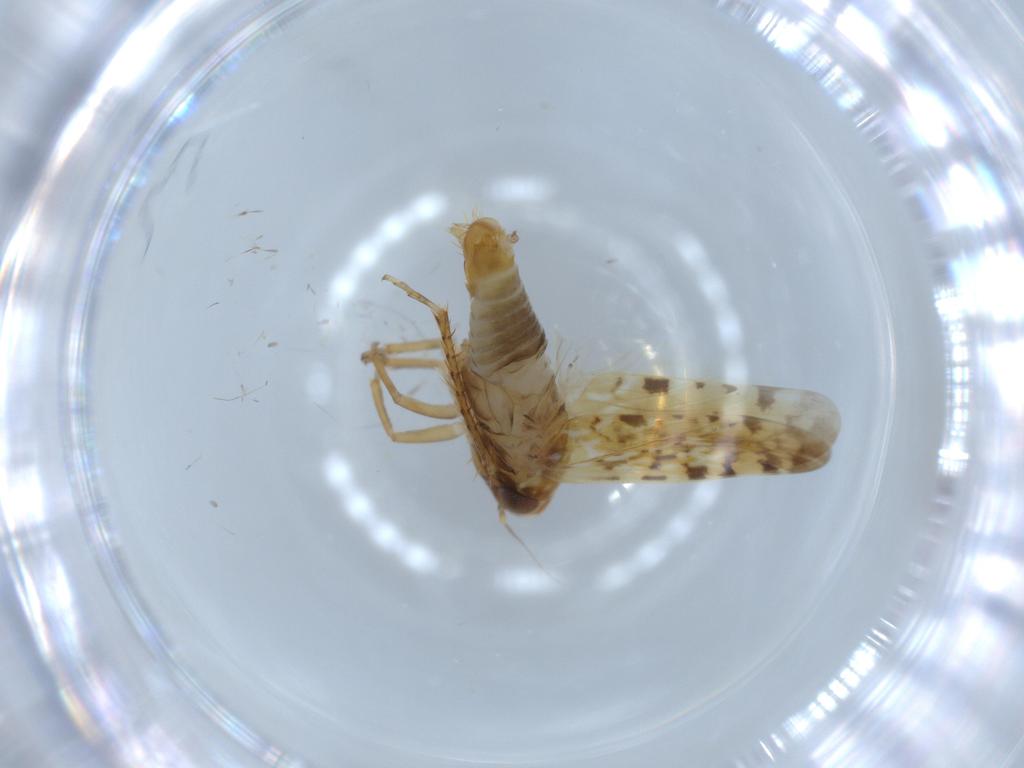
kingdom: Animalia
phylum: Arthropoda
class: Insecta
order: Hemiptera
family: Cicadellidae
